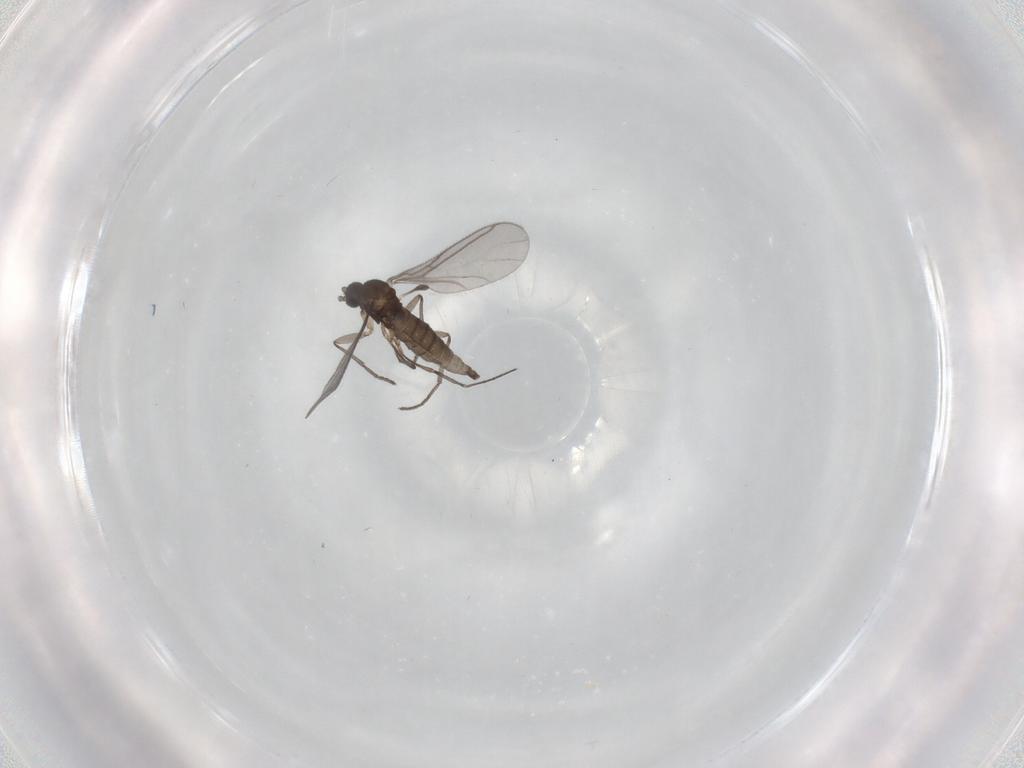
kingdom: Animalia
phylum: Arthropoda
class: Insecta
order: Diptera
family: Sciaridae
